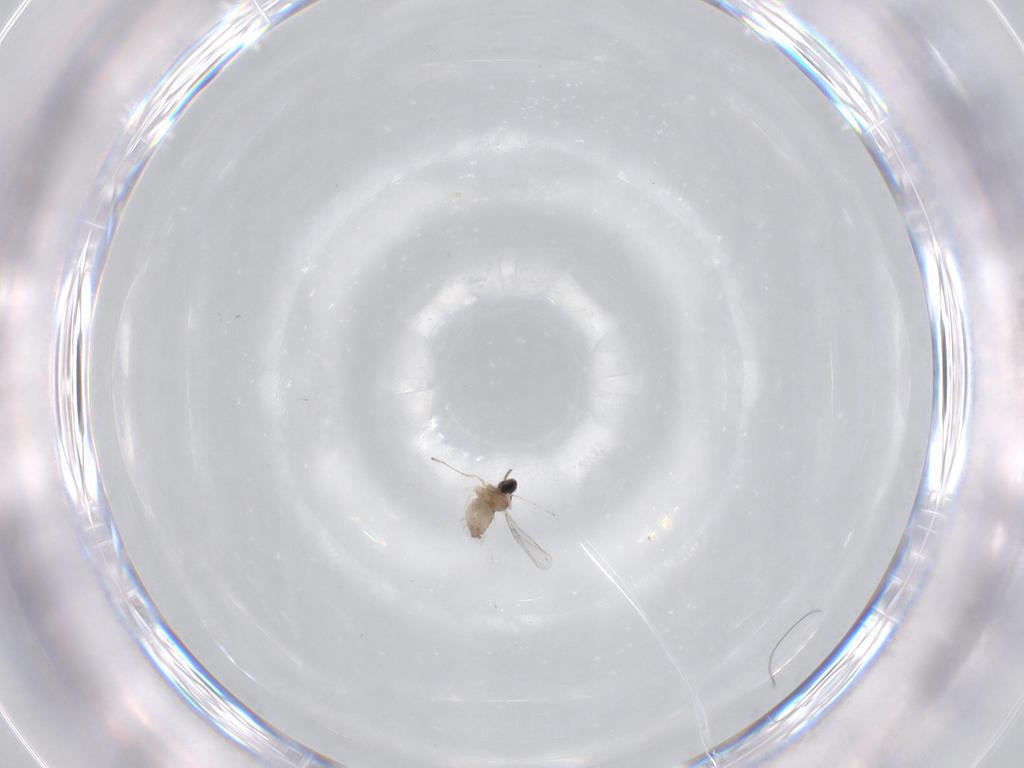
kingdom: Animalia
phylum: Arthropoda
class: Insecta
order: Diptera
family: Cecidomyiidae
